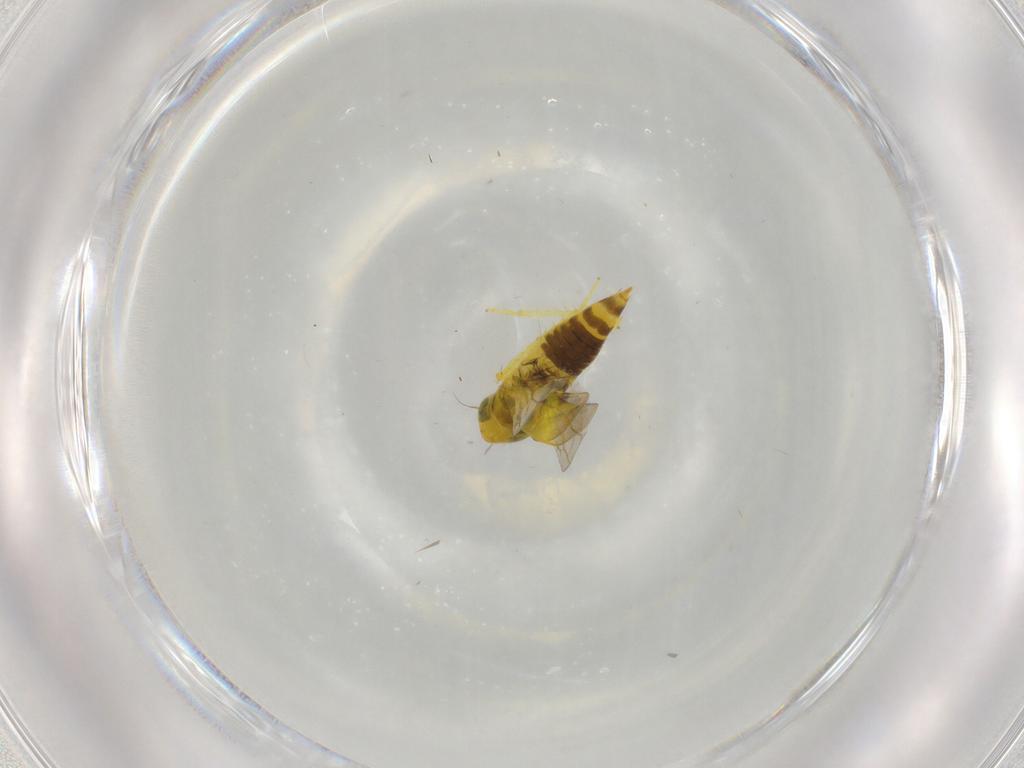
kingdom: Animalia
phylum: Arthropoda
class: Insecta
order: Hemiptera
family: Cicadellidae
